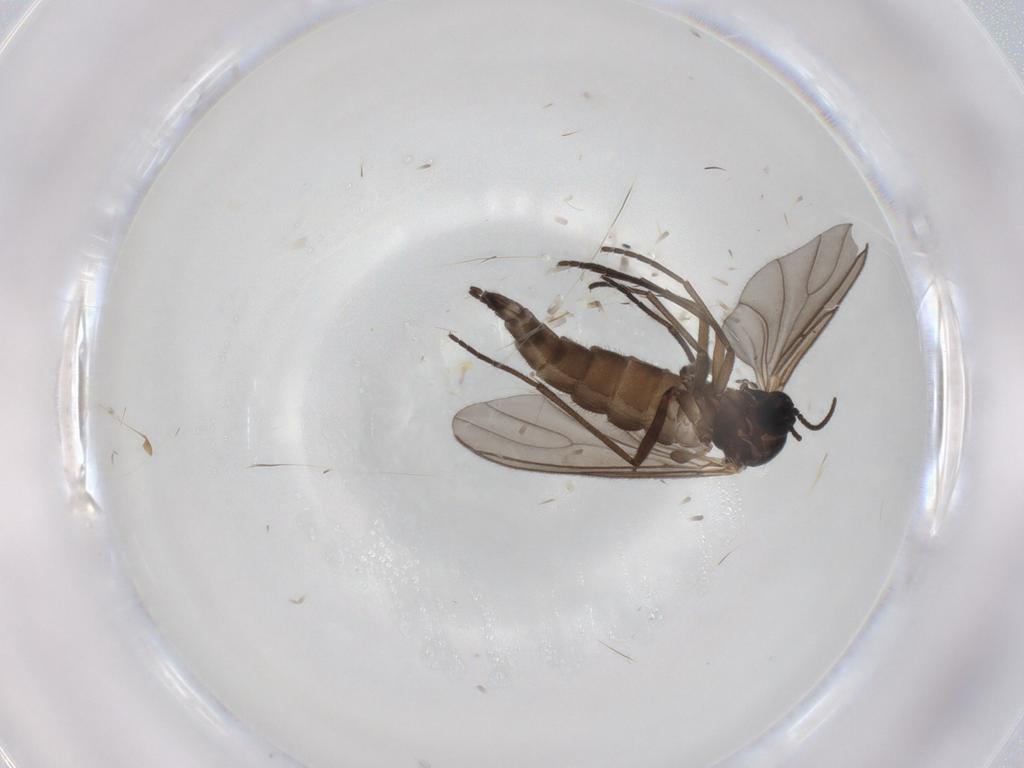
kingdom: Animalia
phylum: Arthropoda
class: Insecta
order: Diptera
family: Sciaridae
